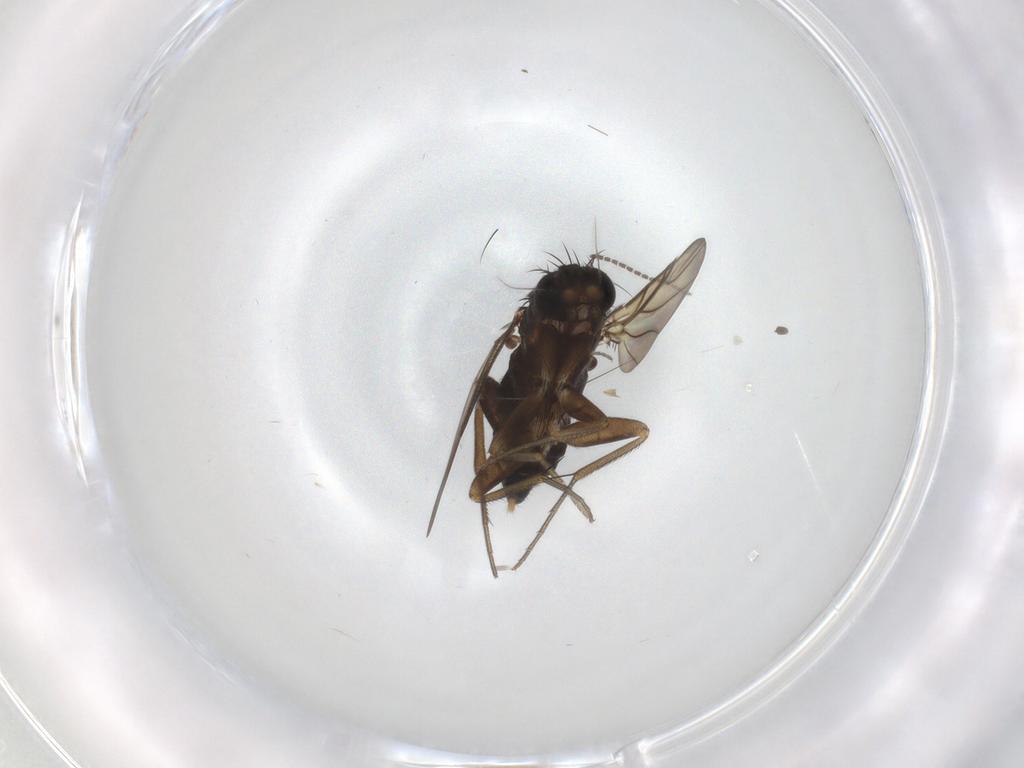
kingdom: Animalia
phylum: Arthropoda
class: Insecta
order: Diptera
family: Phoridae
